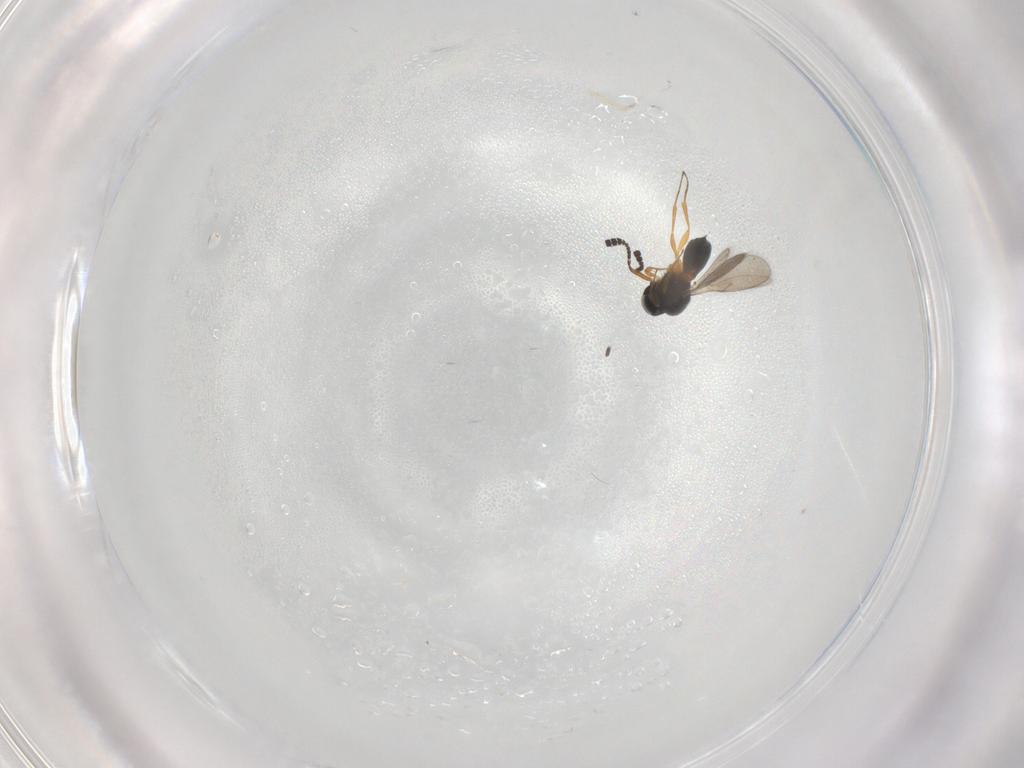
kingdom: Animalia
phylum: Arthropoda
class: Insecta
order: Hymenoptera
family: Scelionidae
